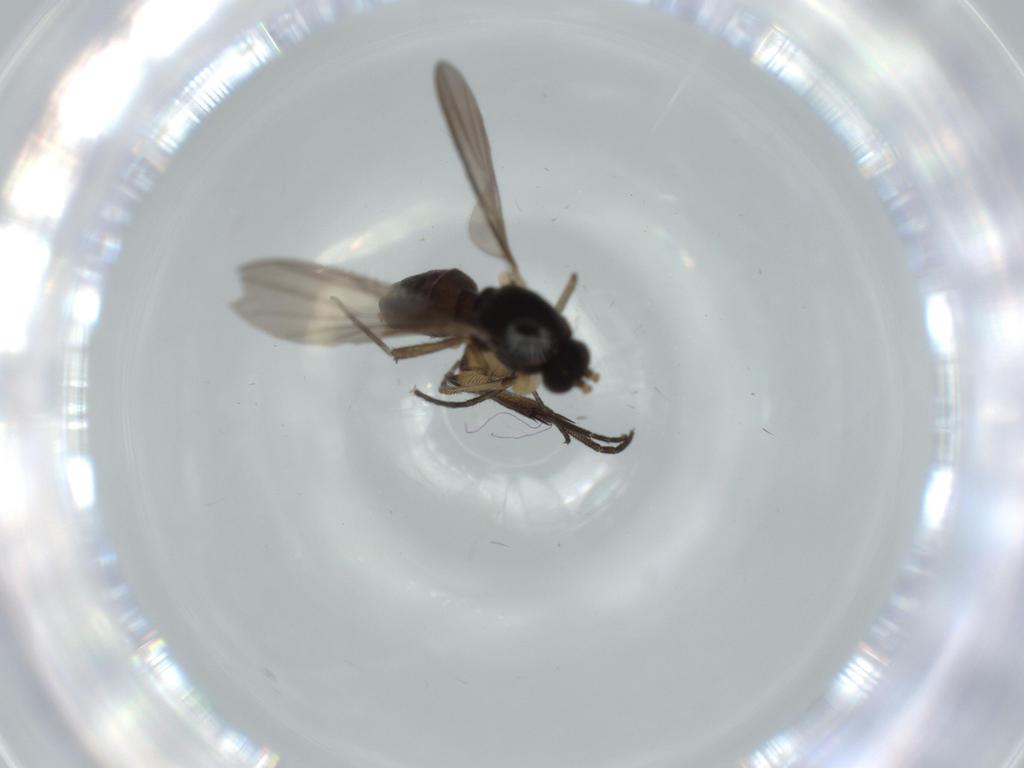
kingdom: Animalia
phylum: Arthropoda
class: Insecta
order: Diptera
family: Mycetophilidae
